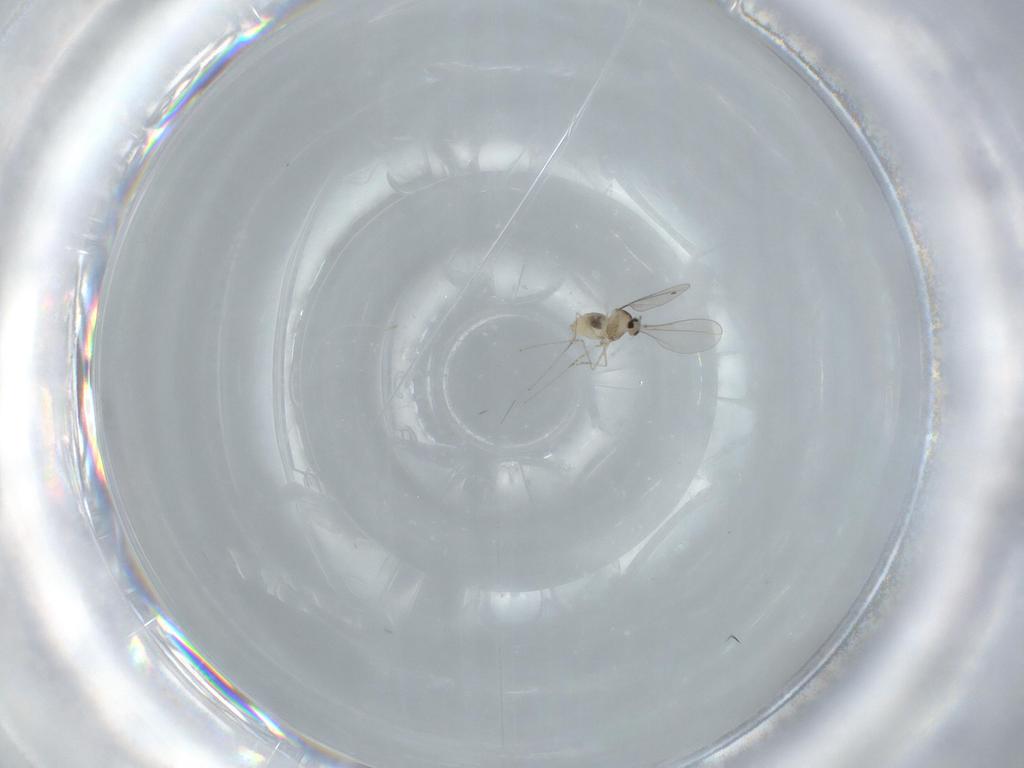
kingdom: Animalia
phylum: Arthropoda
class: Insecta
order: Diptera
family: Cecidomyiidae
